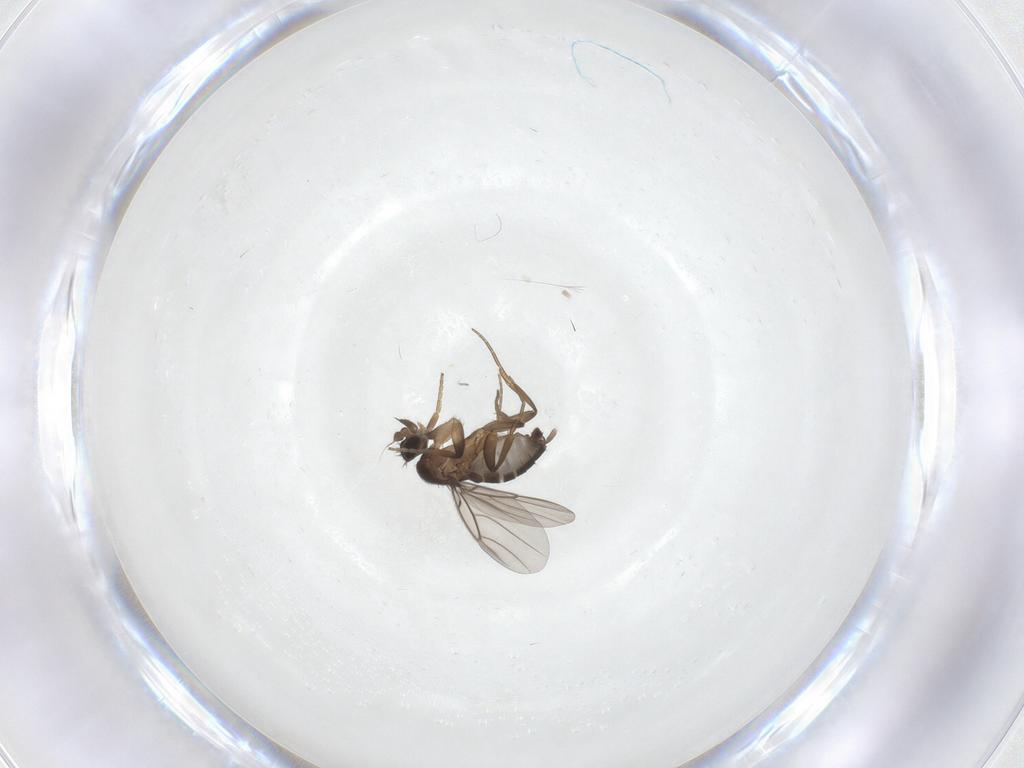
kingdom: Animalia
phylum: Arthropoda
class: Insecta
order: Diptera
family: Phoridae
